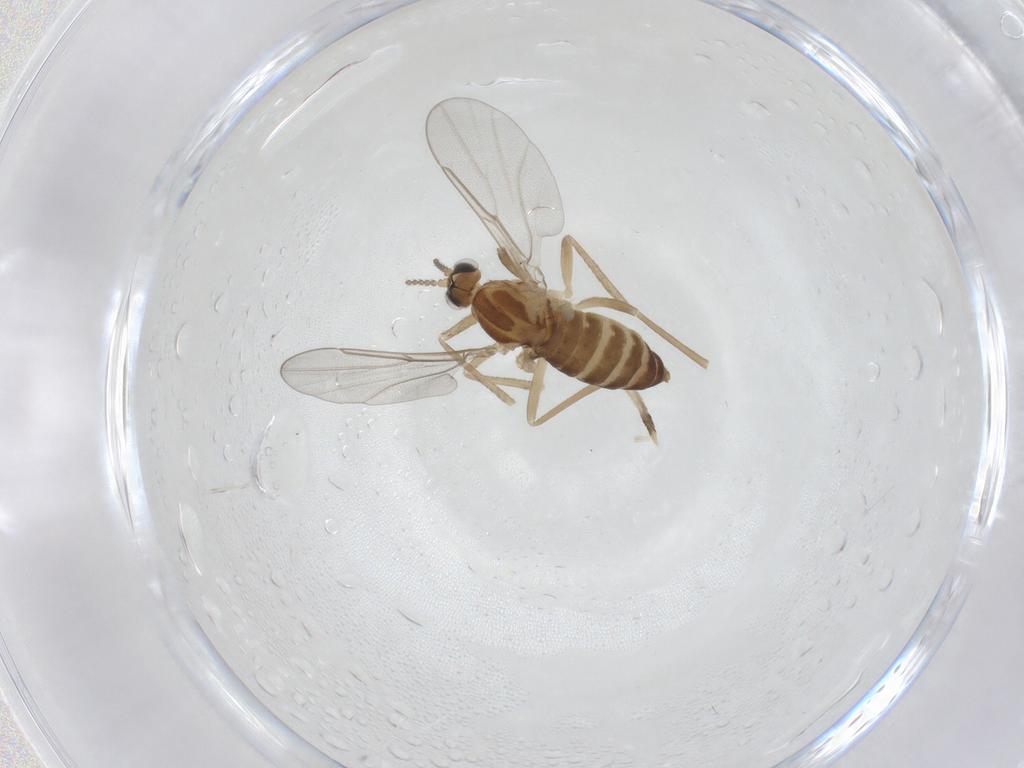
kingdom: Animalia
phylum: Arthropoda
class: Insecta
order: Diptera
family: Cecidomyiidae
